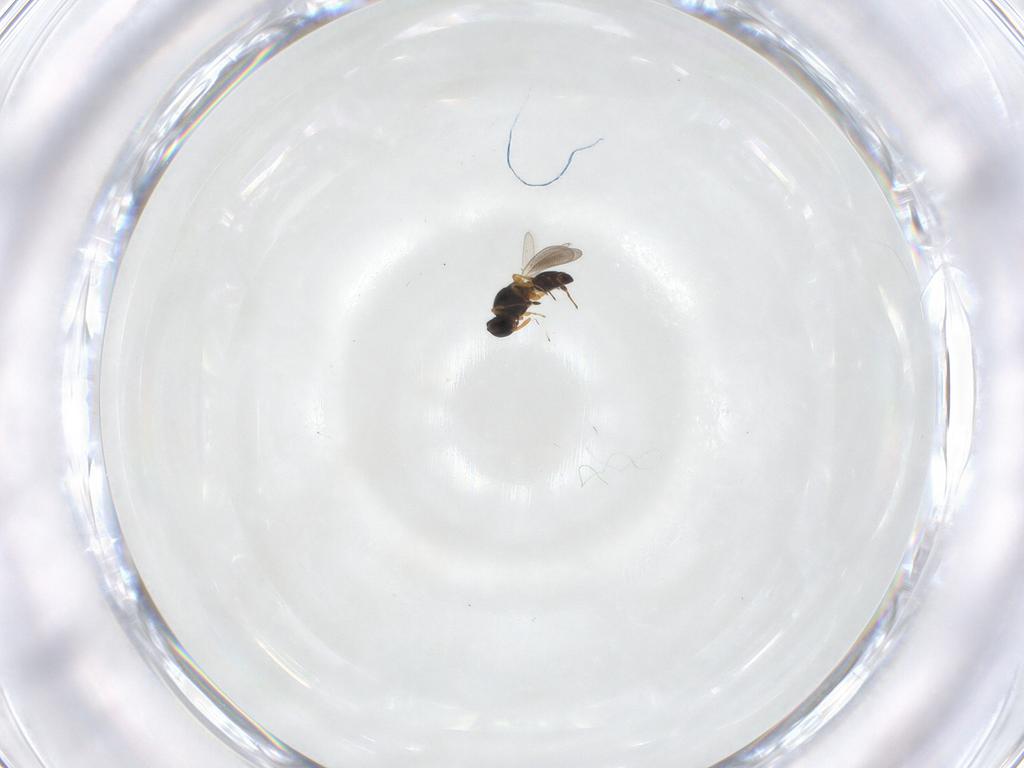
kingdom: Animalia
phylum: Arthropoda
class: Insecta
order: Hymenoptera
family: Platygastridae
